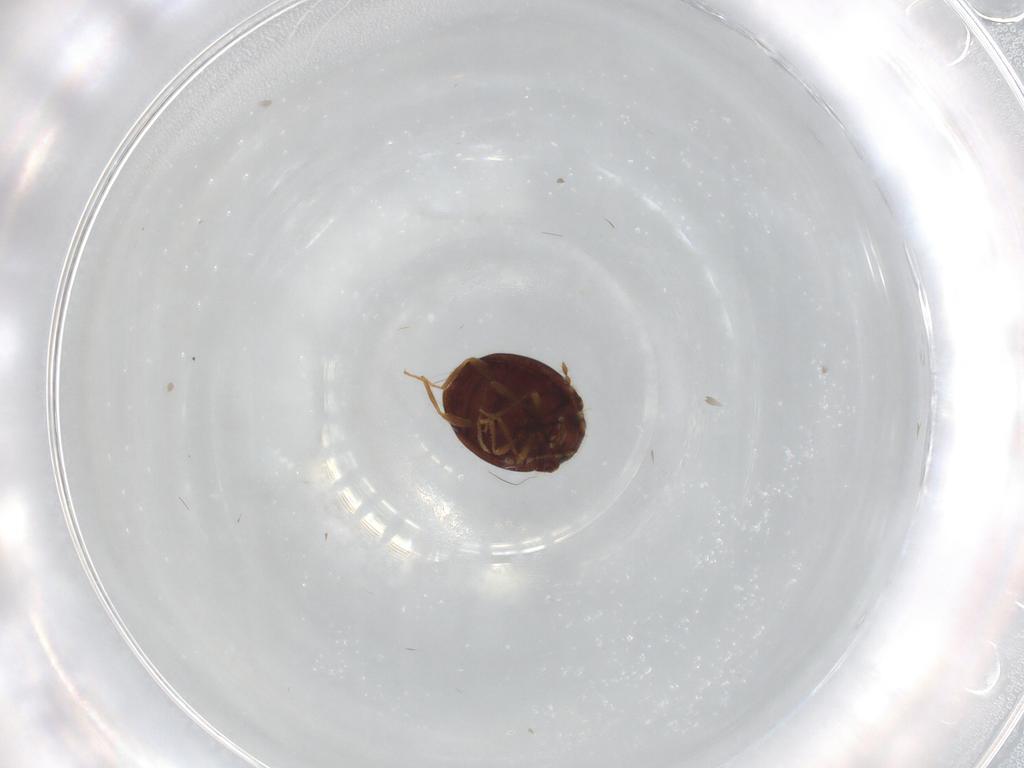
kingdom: Animalia
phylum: Arthropoda
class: Insecta
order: Coleoptera
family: Anamorphidae
